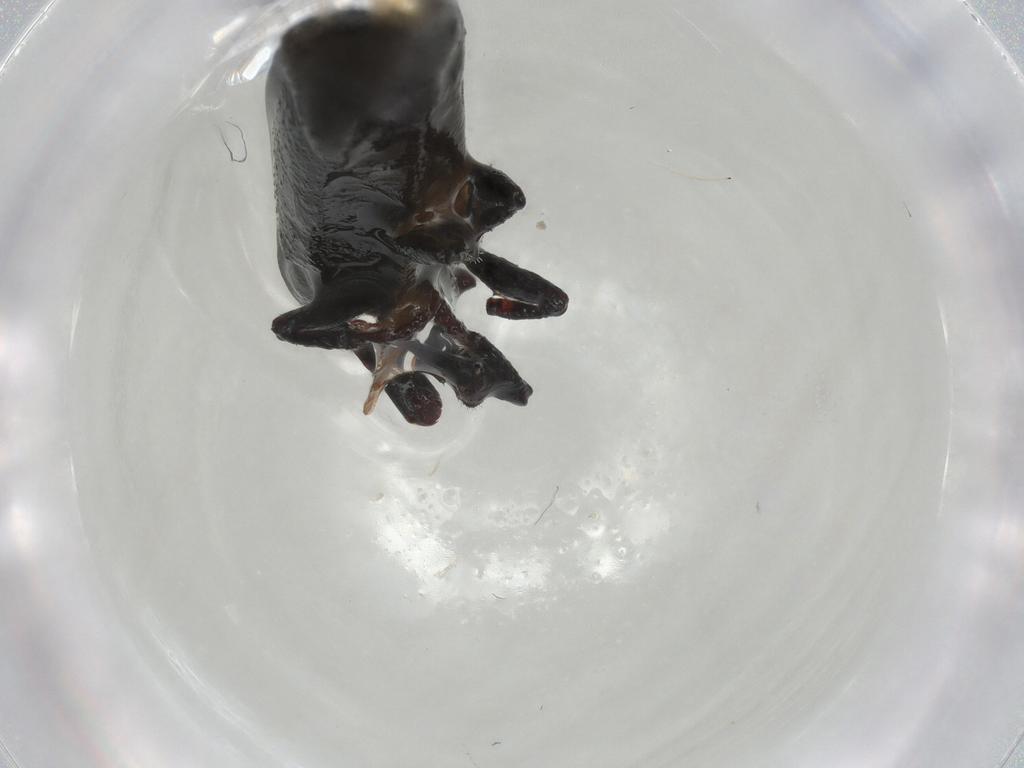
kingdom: Animalia
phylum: Arthropoda
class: Insecta
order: Coleoptera
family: Curculionidae
